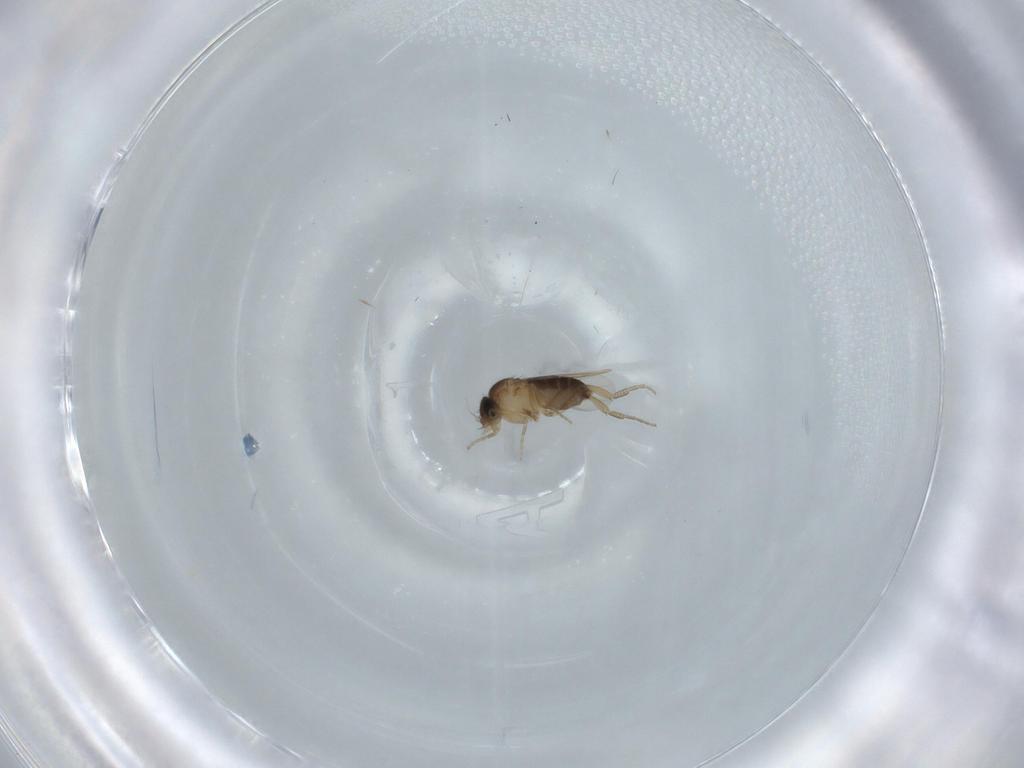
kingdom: Animalia
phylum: Arthropoda
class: Insecta
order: Diptera
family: Phoridae
